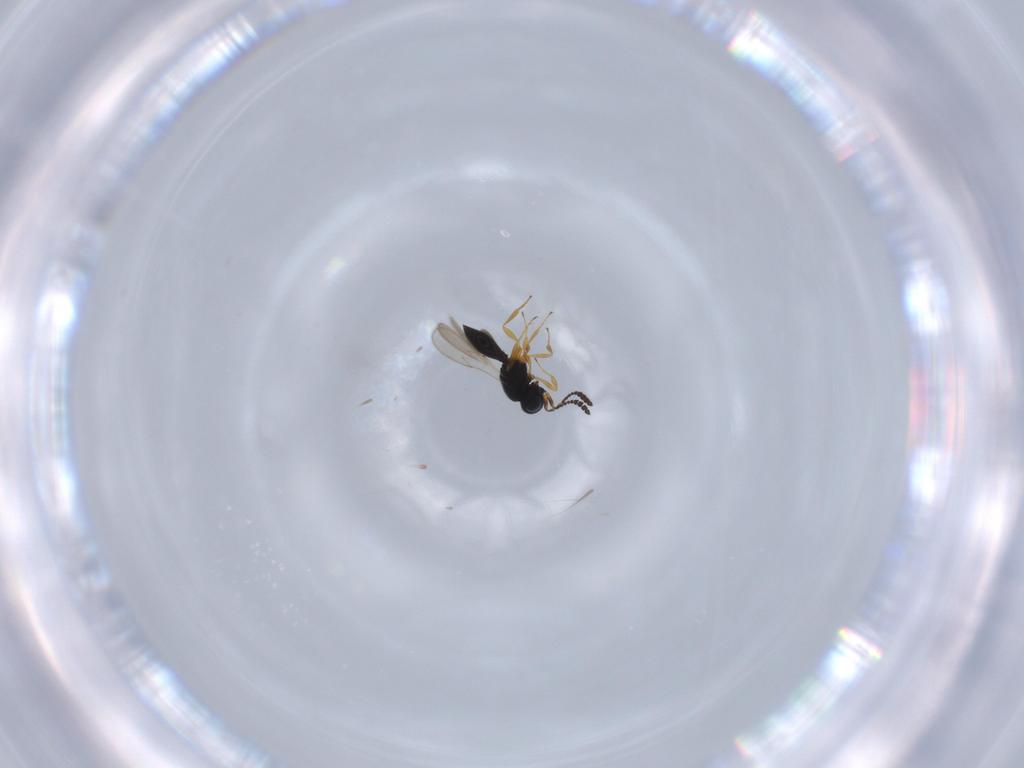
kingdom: Animalia
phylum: Arthropoda
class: Insecta
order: Hymenoptera
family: Scelionidae
